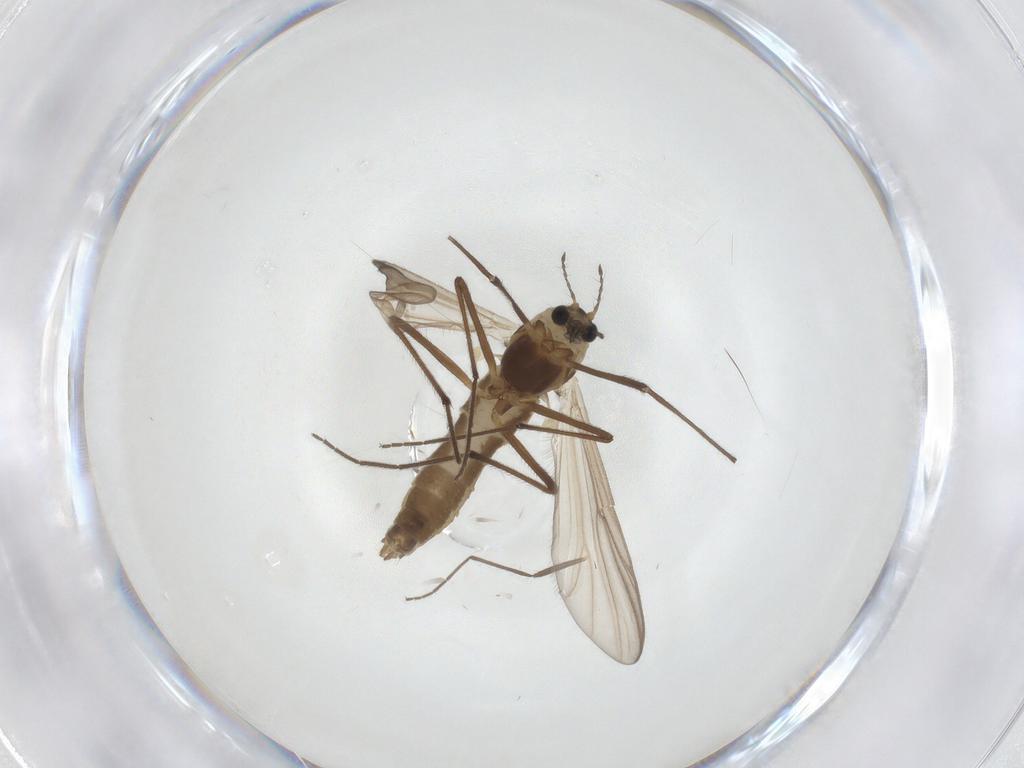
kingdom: Animalia
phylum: Arthropoda
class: Insecta
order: Diptera
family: Chironomidae
